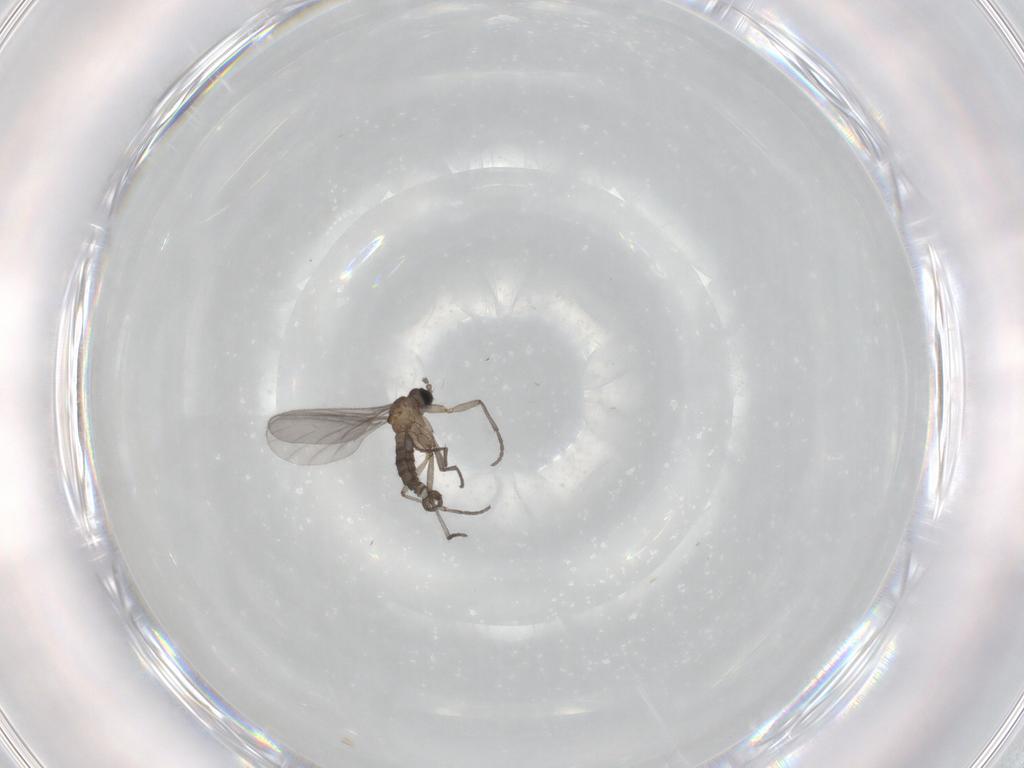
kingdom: Animalia
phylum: Arthropoda
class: Insecta
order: Diptera
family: Sciaridae
